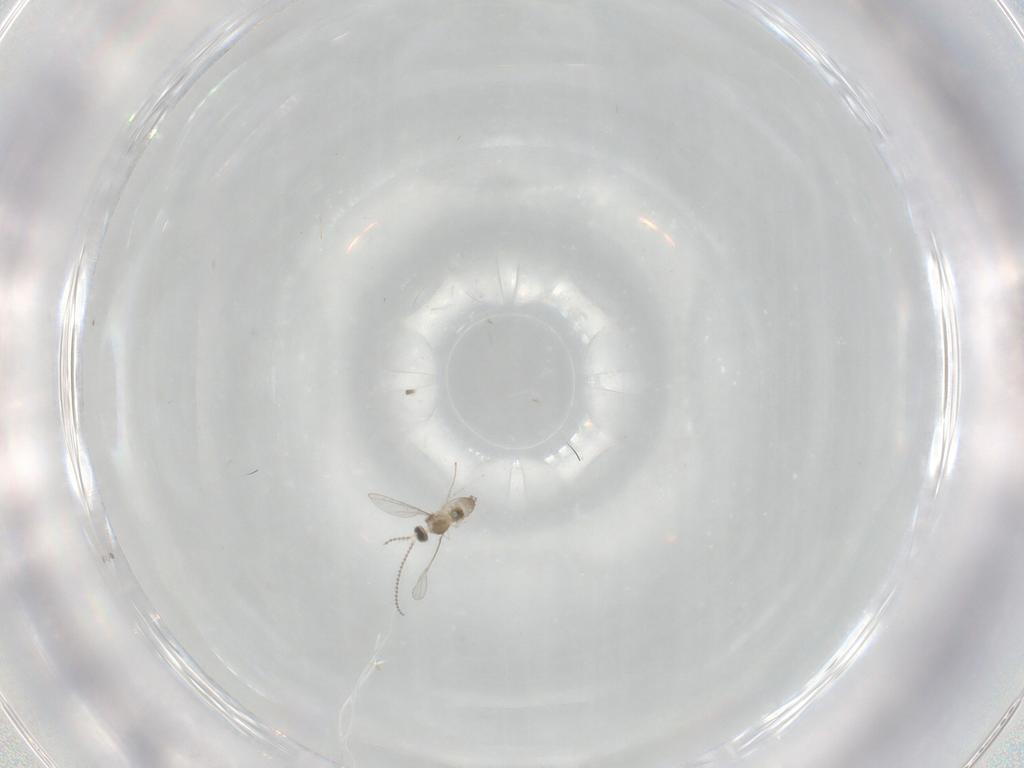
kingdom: Animalia
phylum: Arthropoda
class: Insecta
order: Diptera
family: Cecidomyiidae
